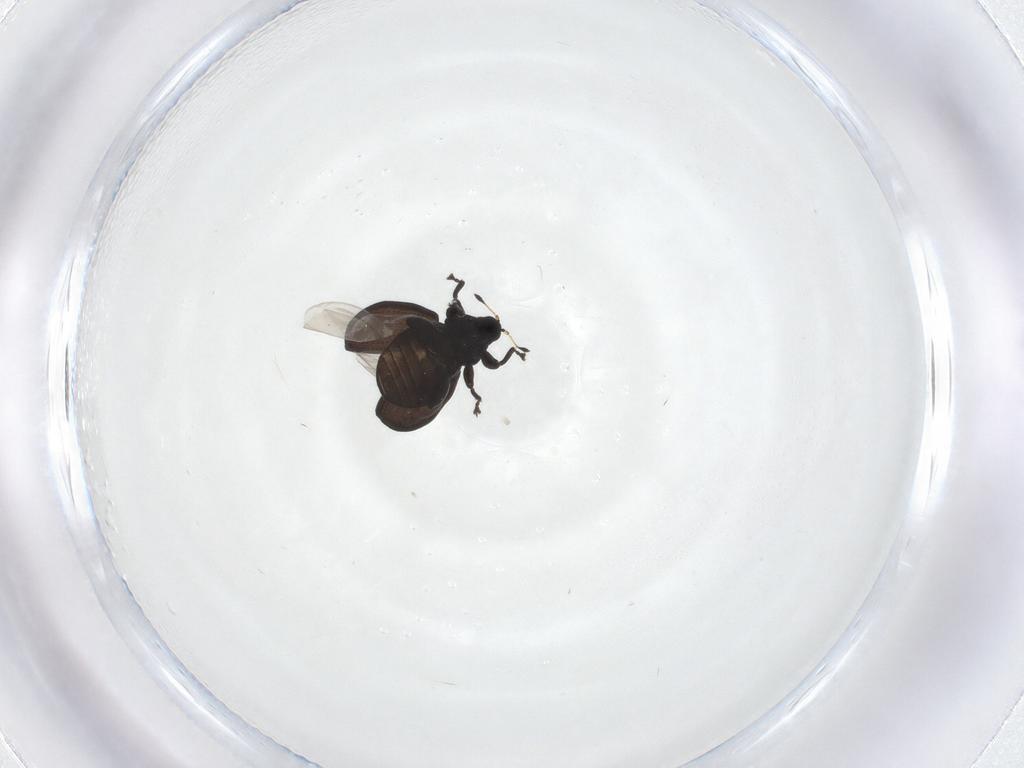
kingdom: Animalia
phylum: Arthropoda
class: Insecta
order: Coleoptera
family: Curculionidae
